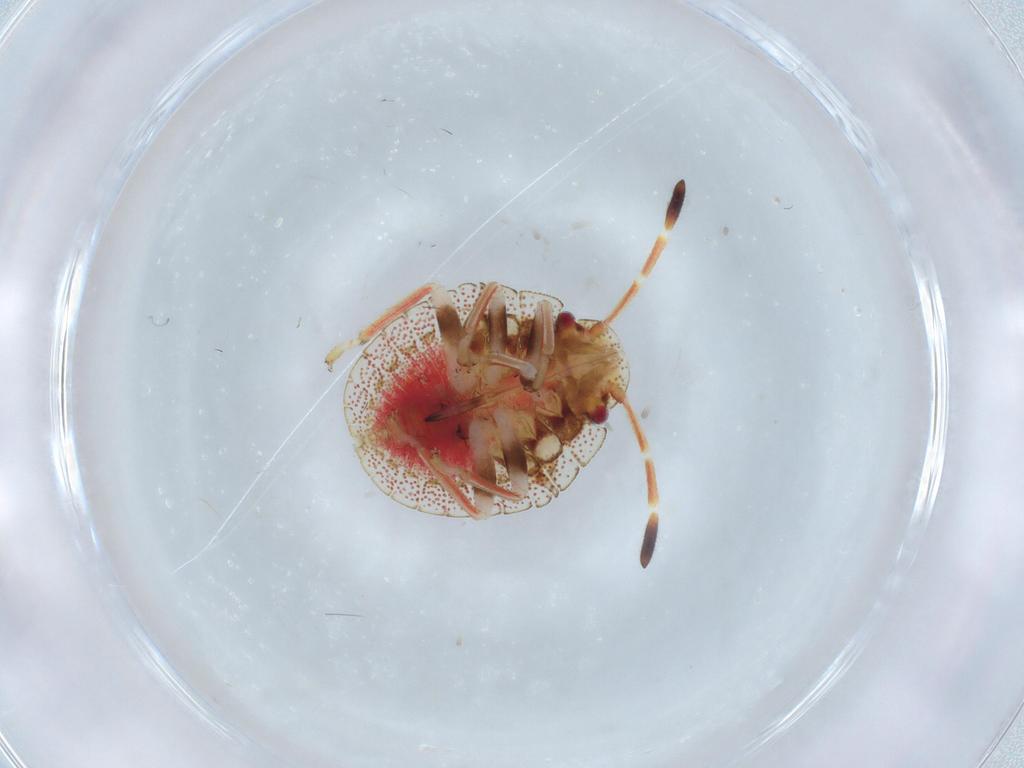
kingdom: Animalia
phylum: Arthropoda
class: Insecta
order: Hemiptera
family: Pentatomidae
